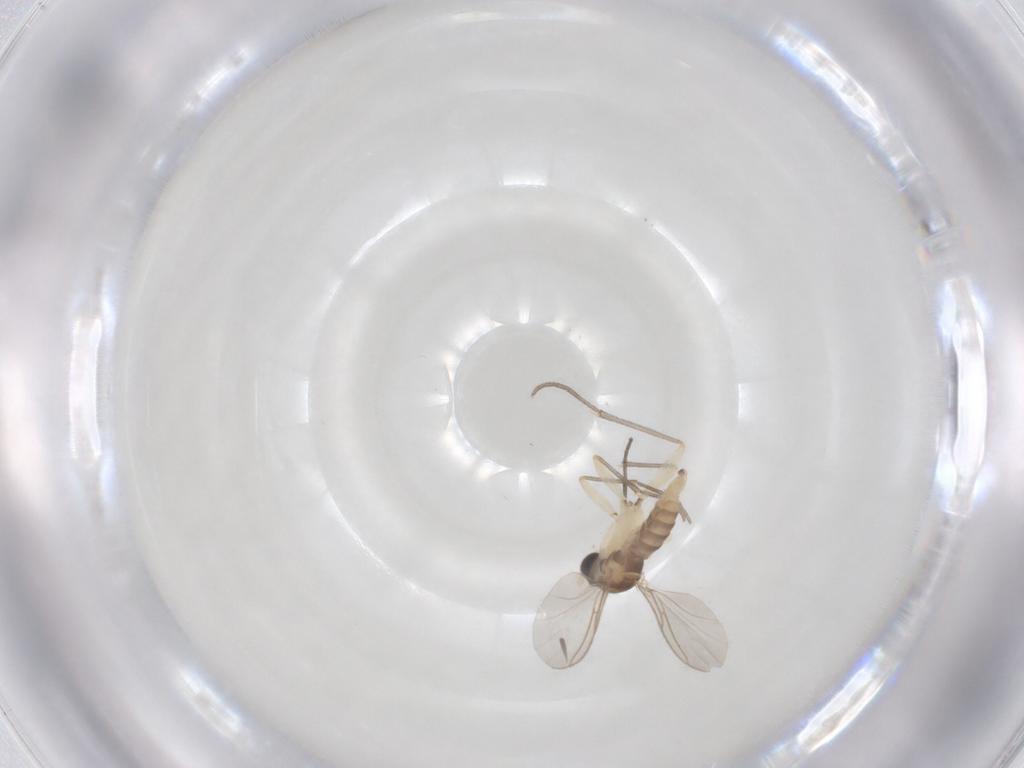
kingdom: Animalia
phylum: Arthropoda
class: Insecta
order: Diptera
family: Sciaridae
